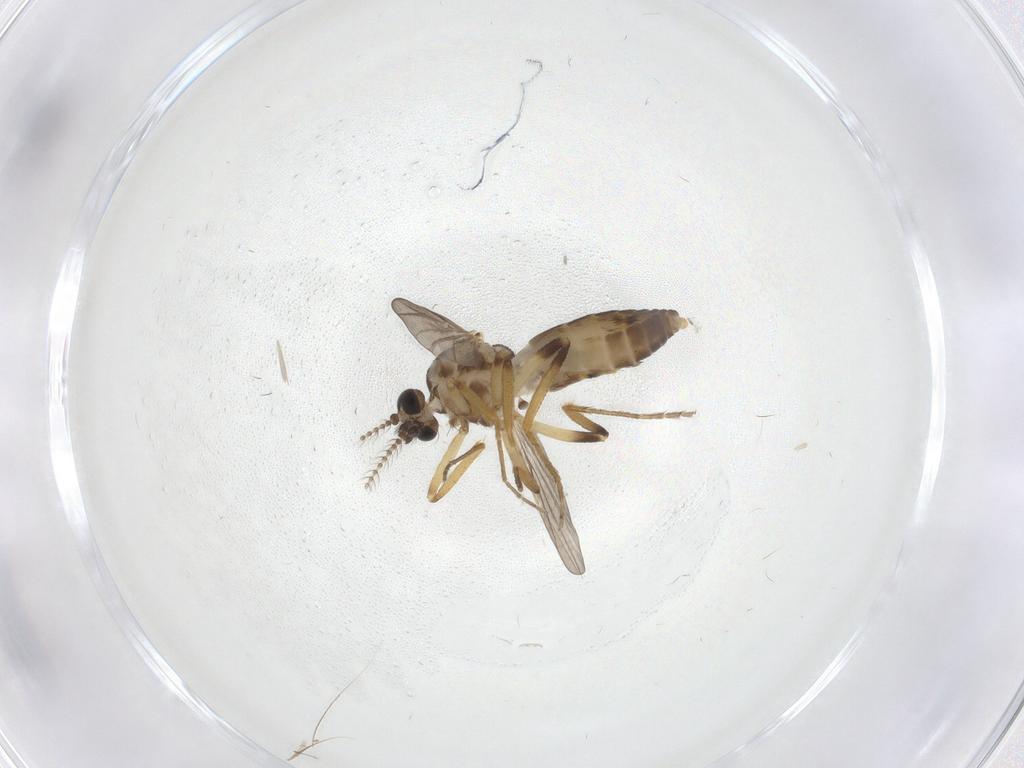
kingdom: Animalia
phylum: Arthropoda
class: Insecta
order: Diptera
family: Ceratopogonidae
